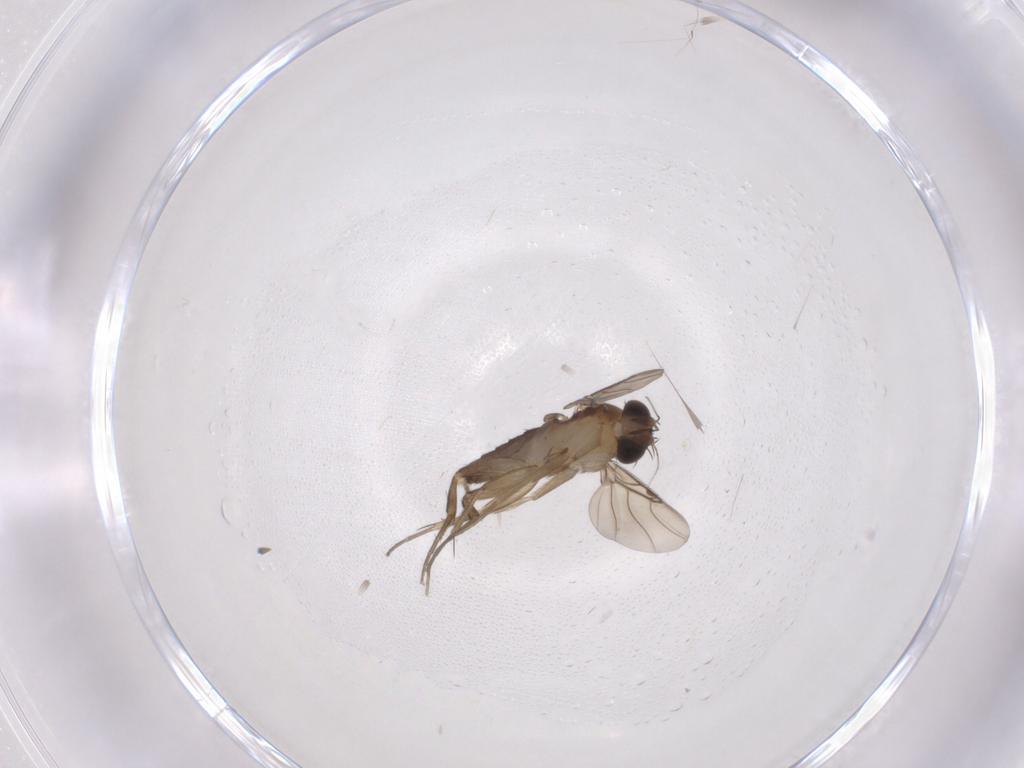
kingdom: Animalia
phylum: Arthropoda
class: Insecta
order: Diptera
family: Phoridae
